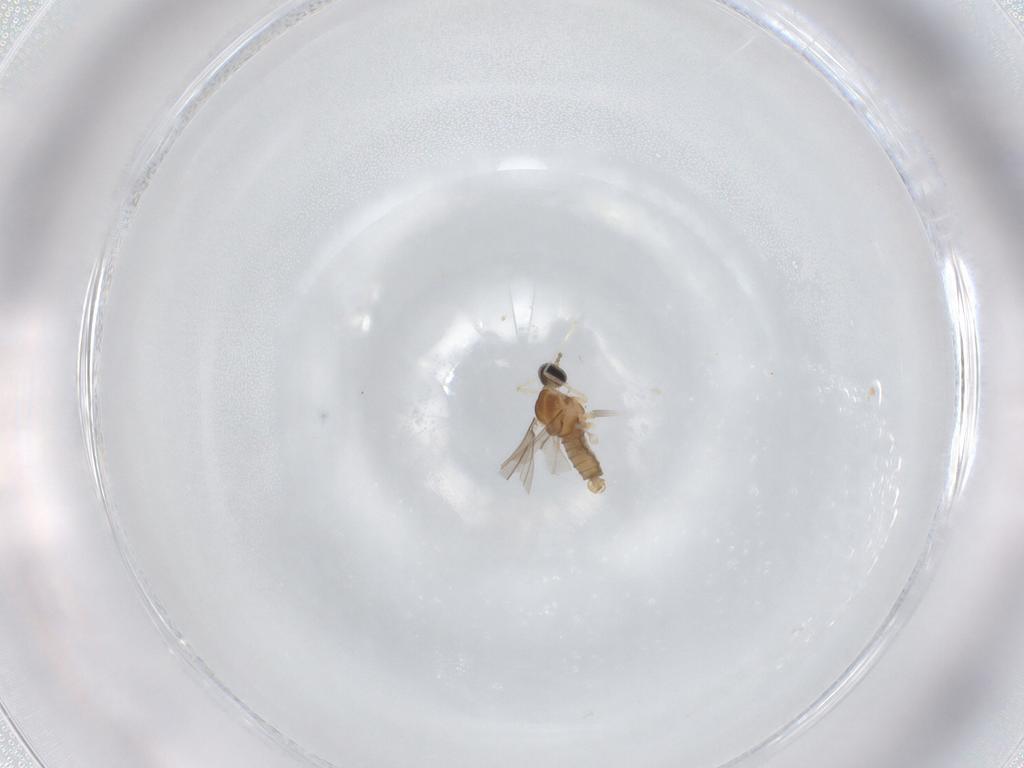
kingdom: Animalia
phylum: Arthropoda
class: Insecta
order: Diptera
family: Cecidomyiidae
